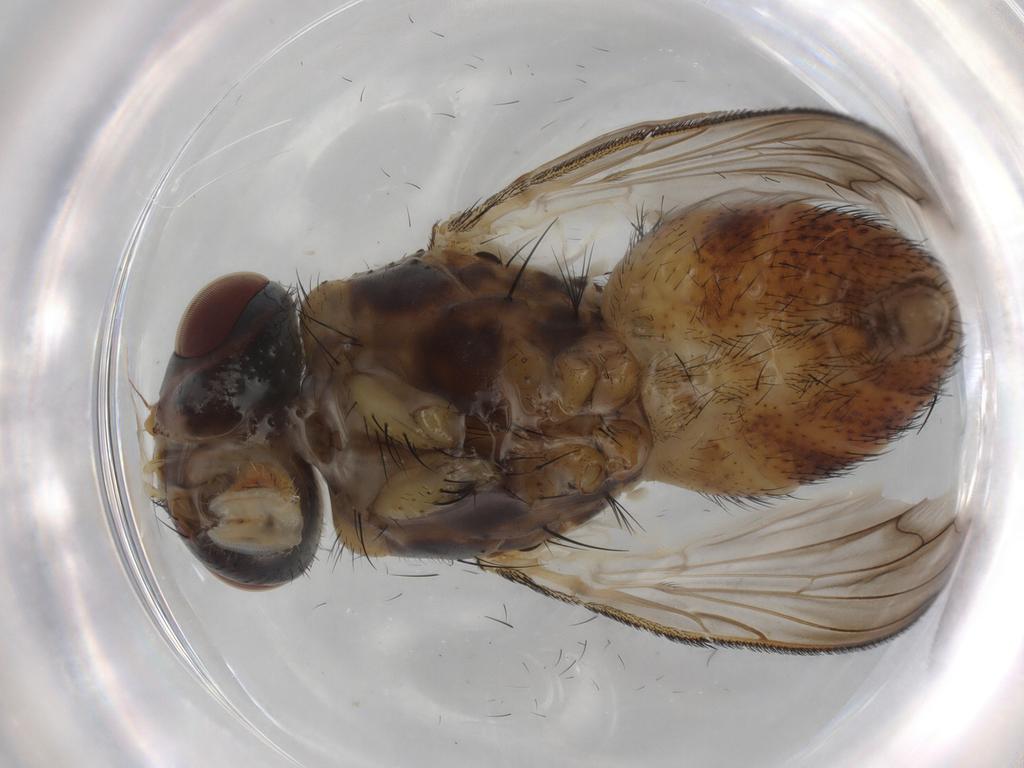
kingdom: Animalia
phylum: Arthropoda
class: Insecta
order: Diptera
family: Calliphoridae
